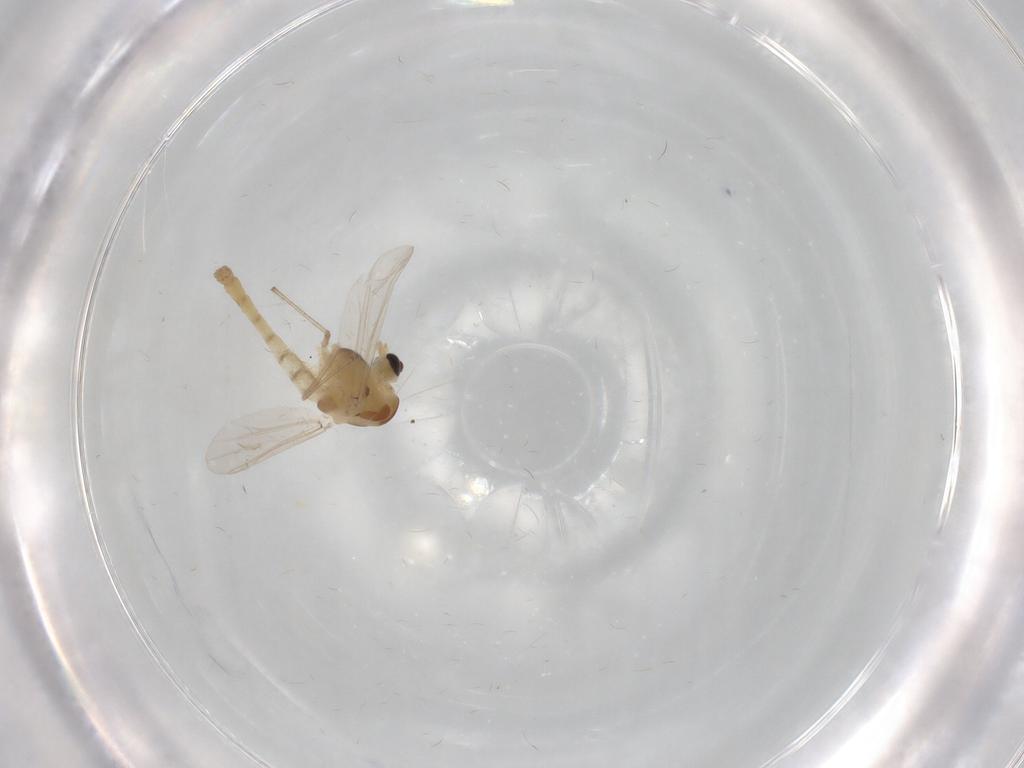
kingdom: Animalia
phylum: Arthropoda
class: Insecta
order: Diptera
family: Chironomidae
